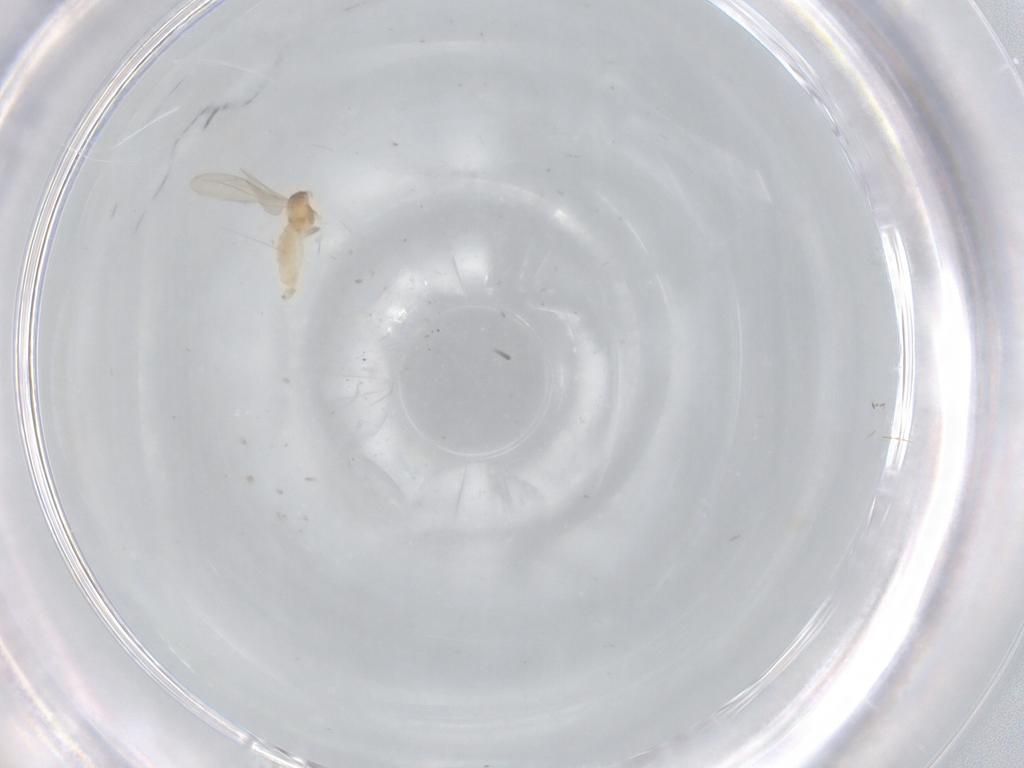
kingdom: Animalia
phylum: Arthropoda
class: Insecta
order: Diptera
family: Cecidomyiidae
